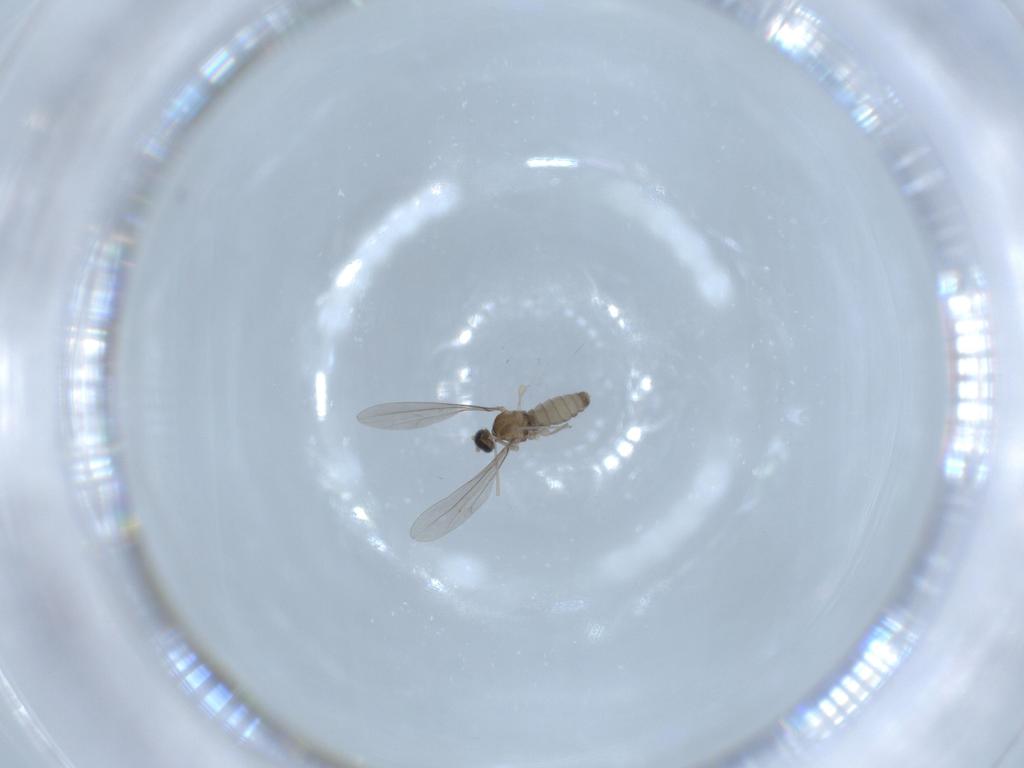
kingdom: Animalia
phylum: Arthropoda
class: Insecta
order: Diptera
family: Cecidomyiidae
